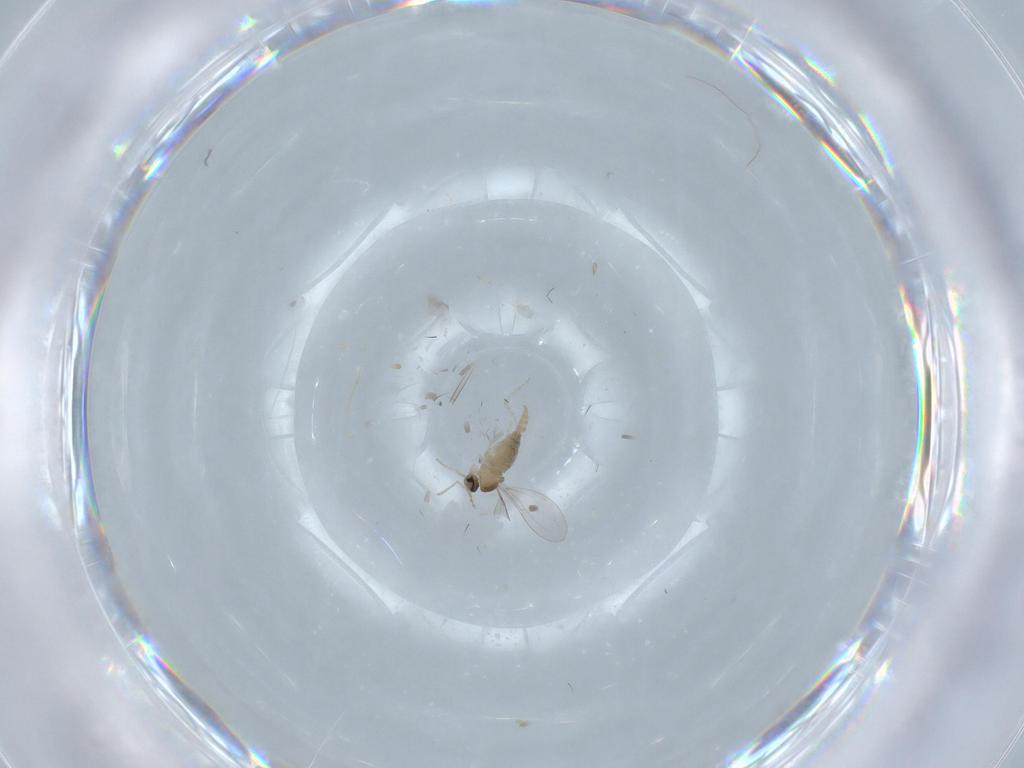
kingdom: Animalia
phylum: Arthropoda
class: Insecta
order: Diptera
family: Cecidomyiidae
